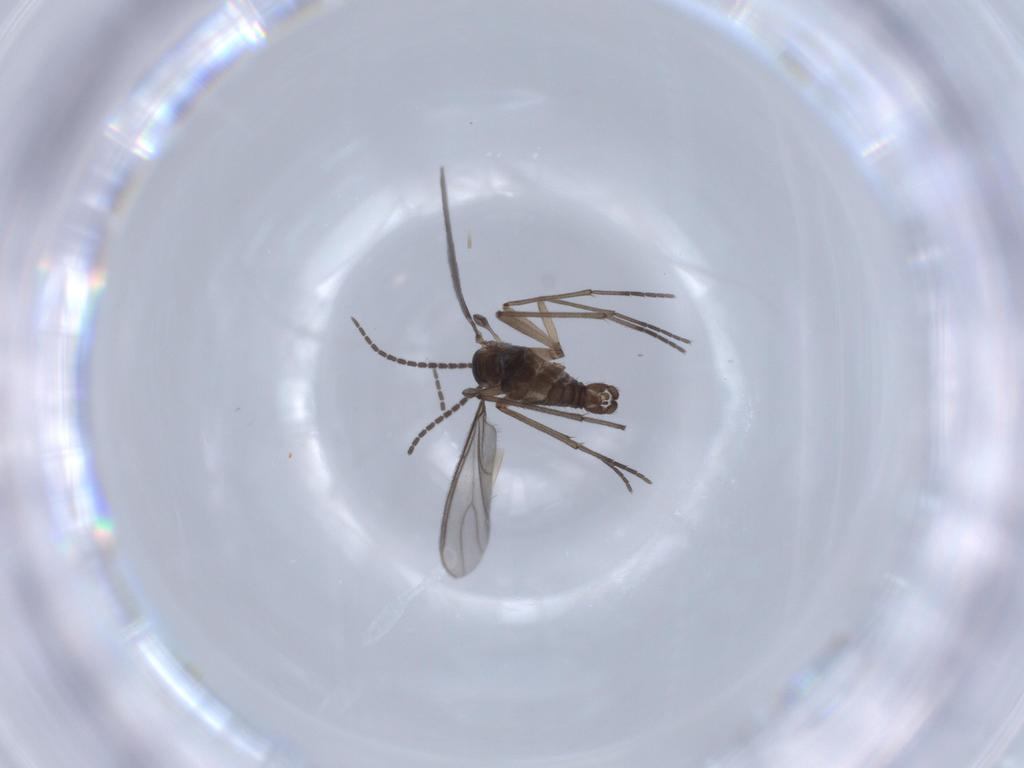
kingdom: Animalia
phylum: Arthropoda
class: Insecta
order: Diptera
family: Sciaridae
